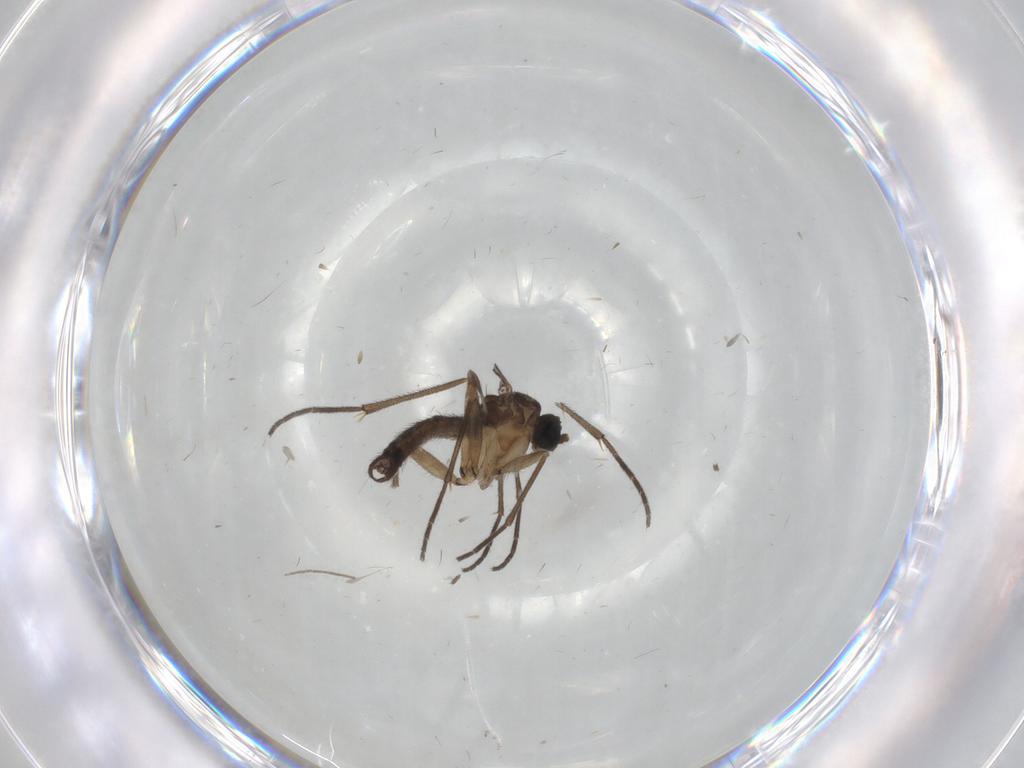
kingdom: Animalia
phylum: Arthropoda
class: Insecta
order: Diptera
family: Sciaridae
